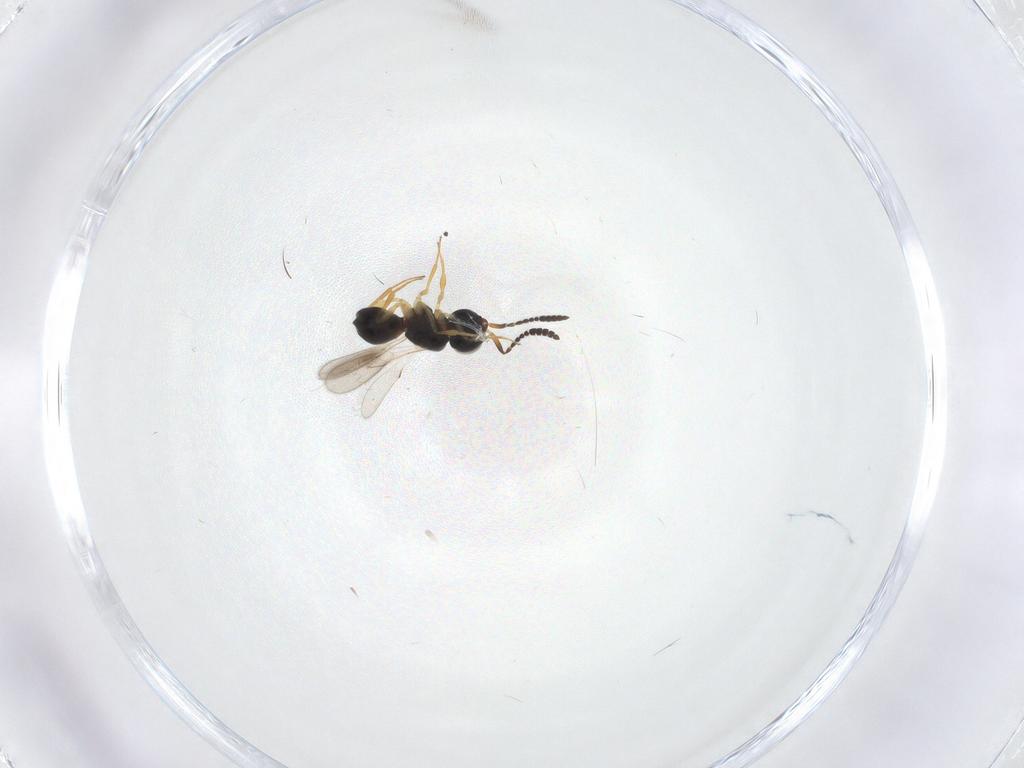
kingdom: Animalia
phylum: Arthropoda
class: Insecta
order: Hymenoptera
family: Scelionidae
